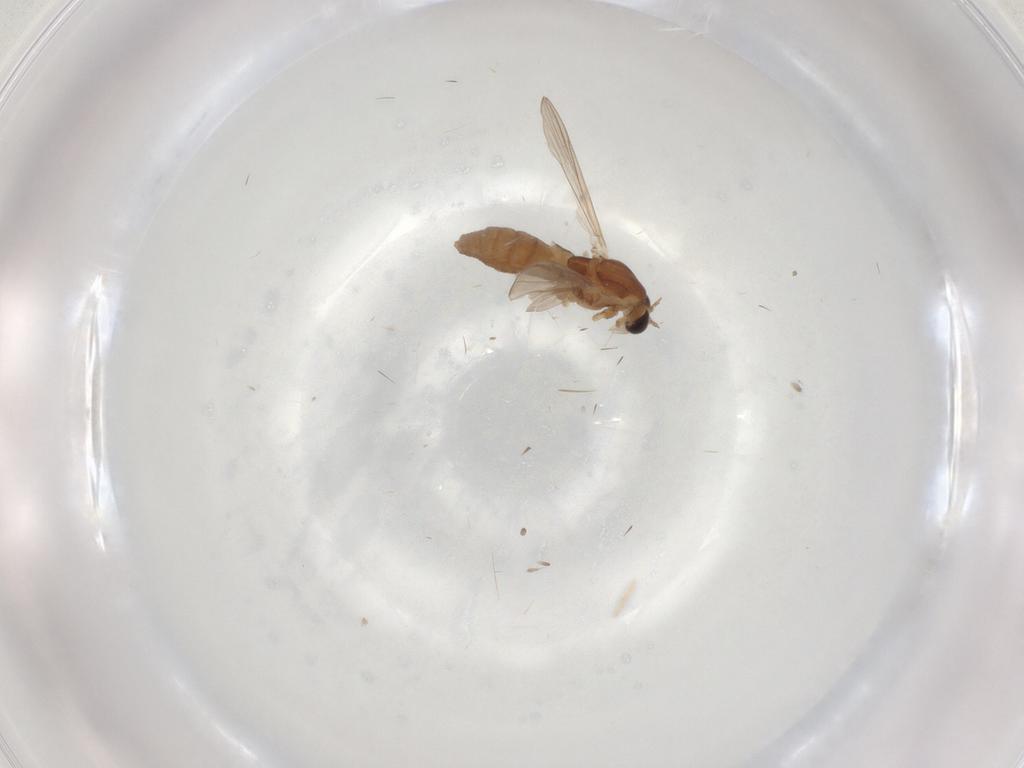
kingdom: Animalia
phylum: Arthropoda
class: Insecta
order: Diptera
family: Chironomidae
